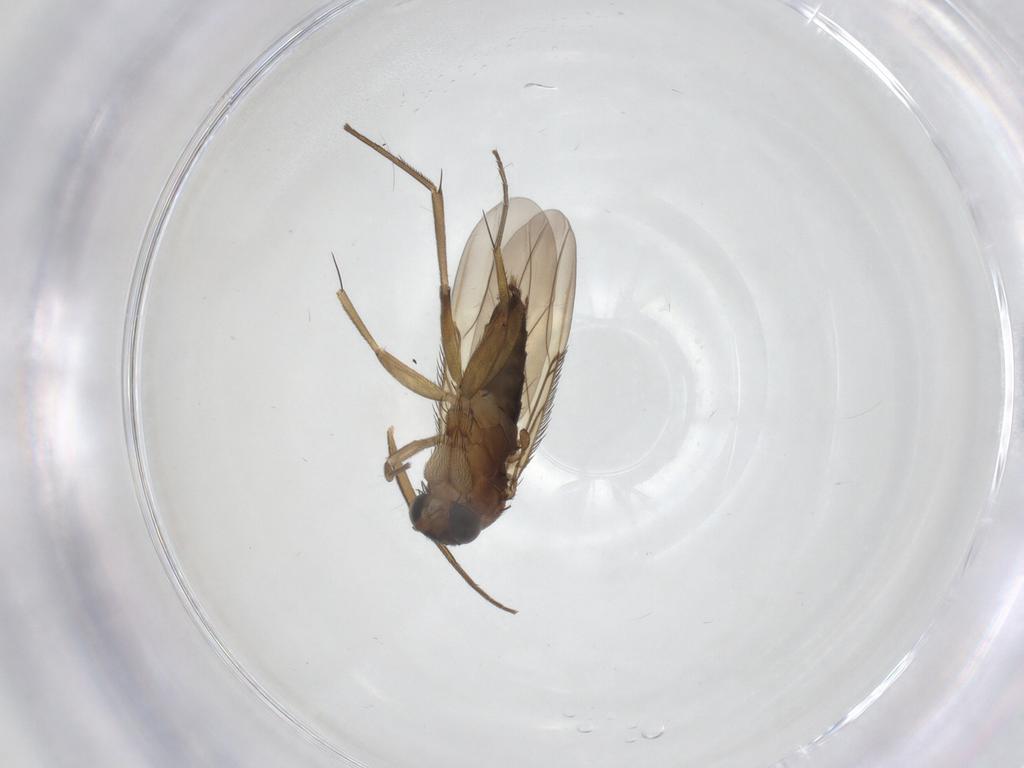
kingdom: Animalia
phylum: Arthropoda
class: Insecta
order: Diptera
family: Phoridae
